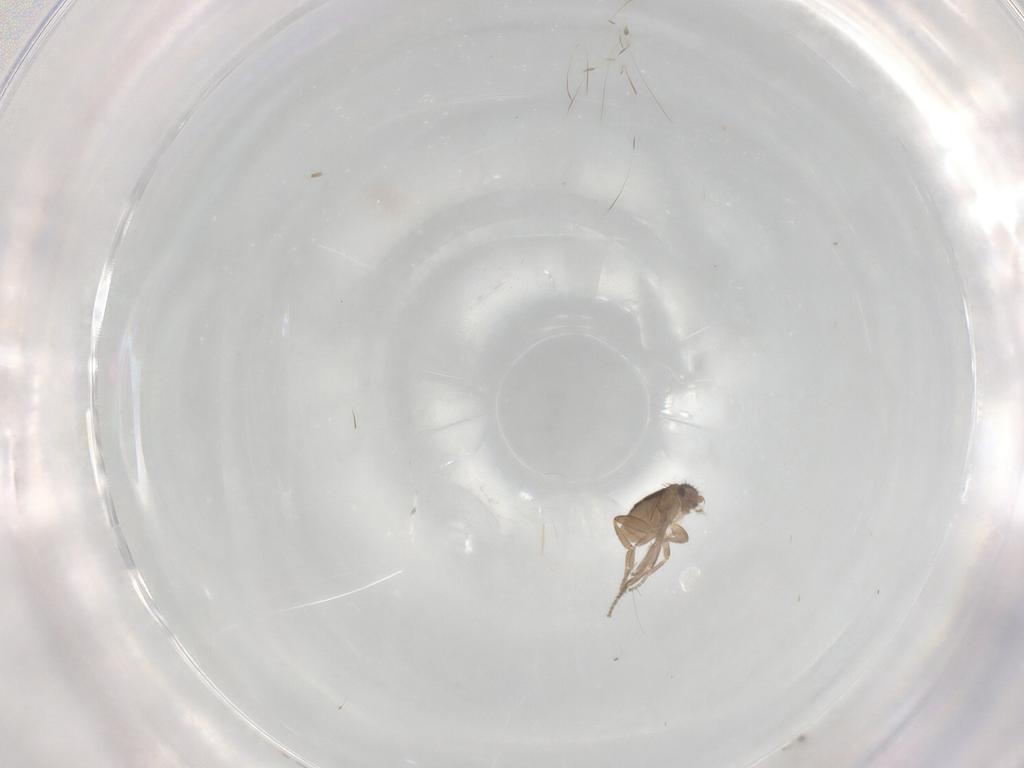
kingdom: Animalia
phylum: Arthropoda
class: Insecta
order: Diptera
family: Phoridae
